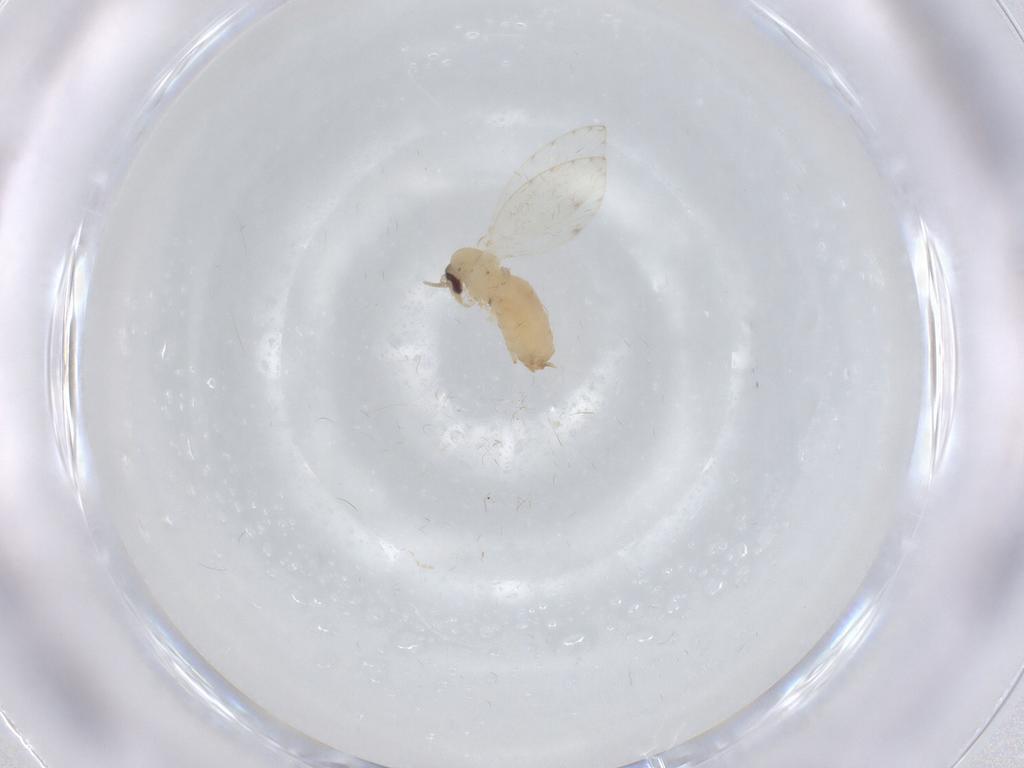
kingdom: Animalia
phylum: Arthropoda
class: Insecta
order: Diptera
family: Psychodidae
